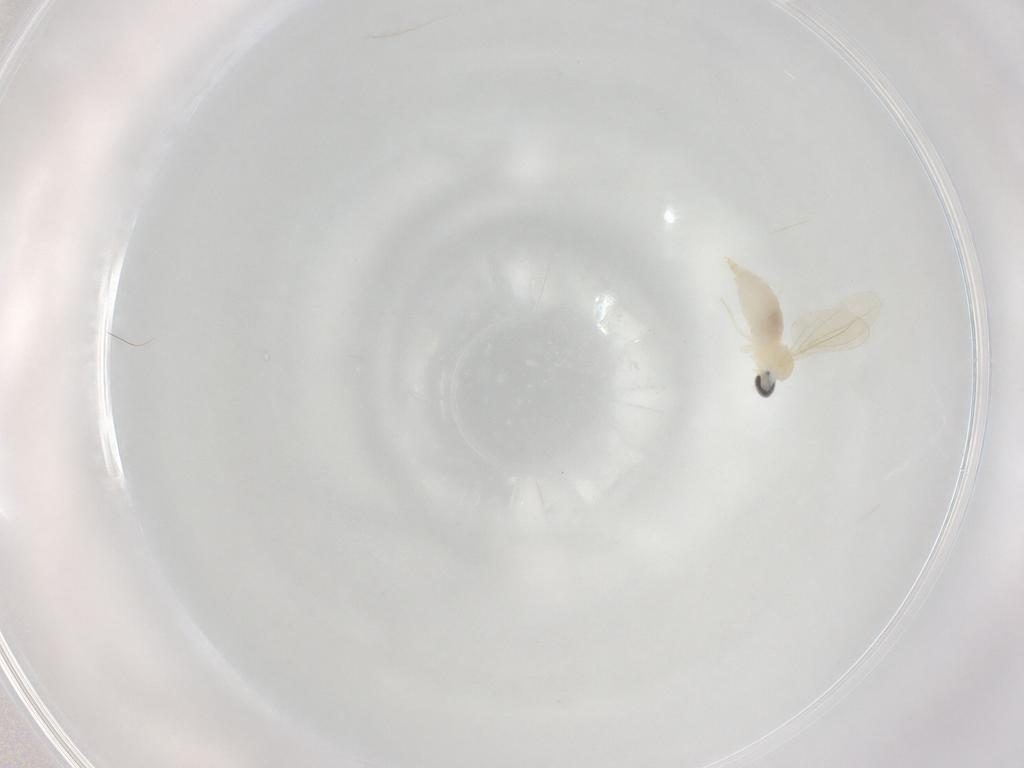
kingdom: Animalia
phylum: Arthropoda
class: Insecta
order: Diptera
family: Cecidomyiidae
